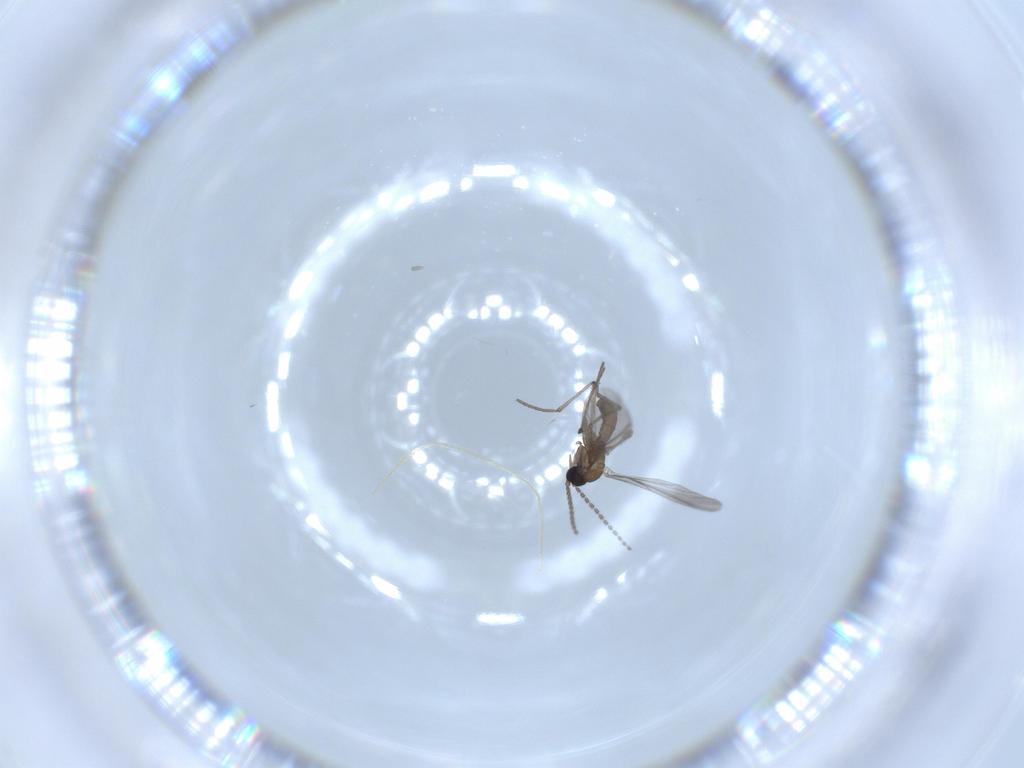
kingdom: Animalia
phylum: Arthropoda
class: Insecta
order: Diptera
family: Sciaridae
